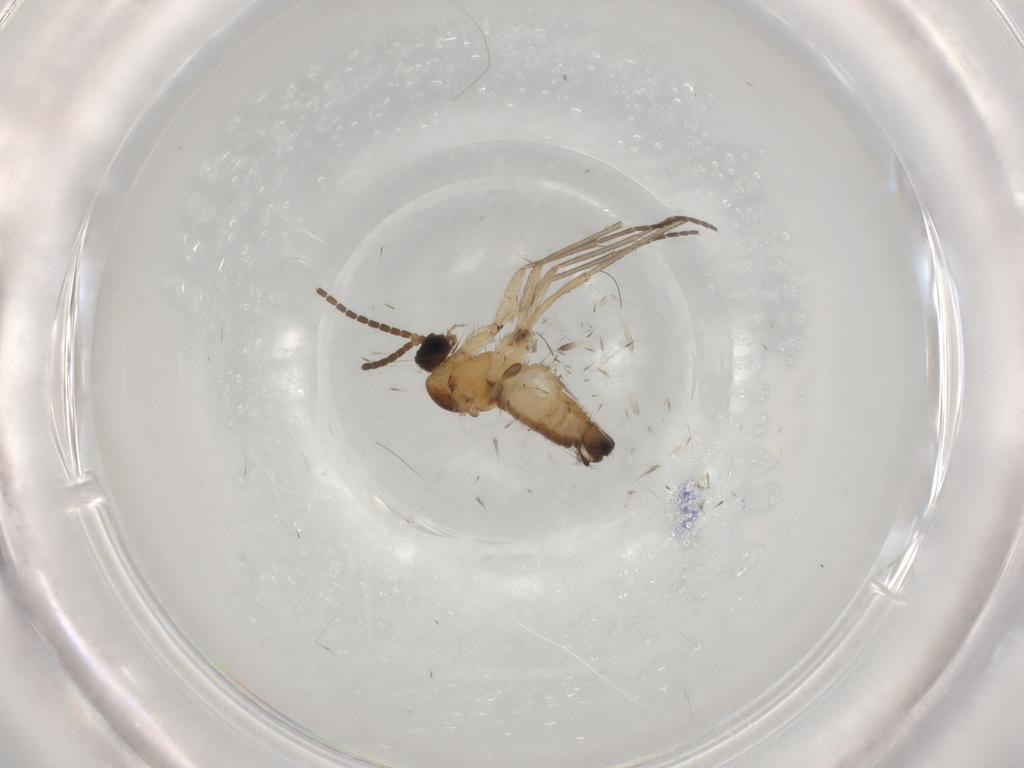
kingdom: Animalia
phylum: Arthropoda
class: Insecta
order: Diptera
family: Sciaridae
